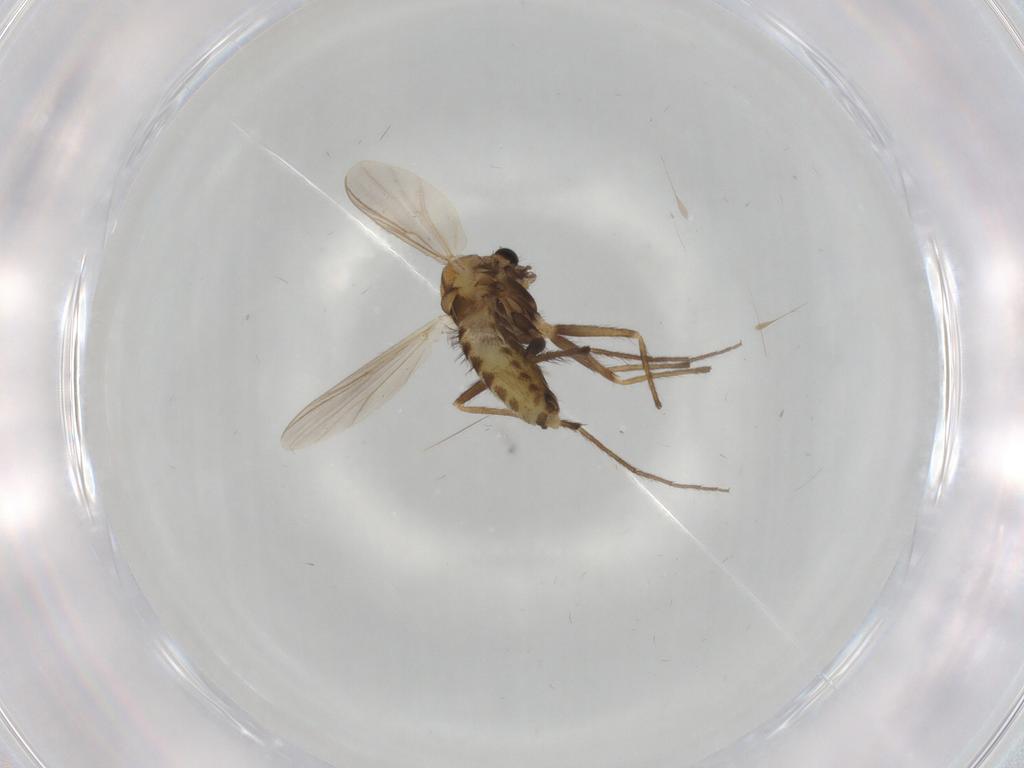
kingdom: Animalia
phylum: Arthropoda
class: Insecta
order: Diptera
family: Chironomidae
